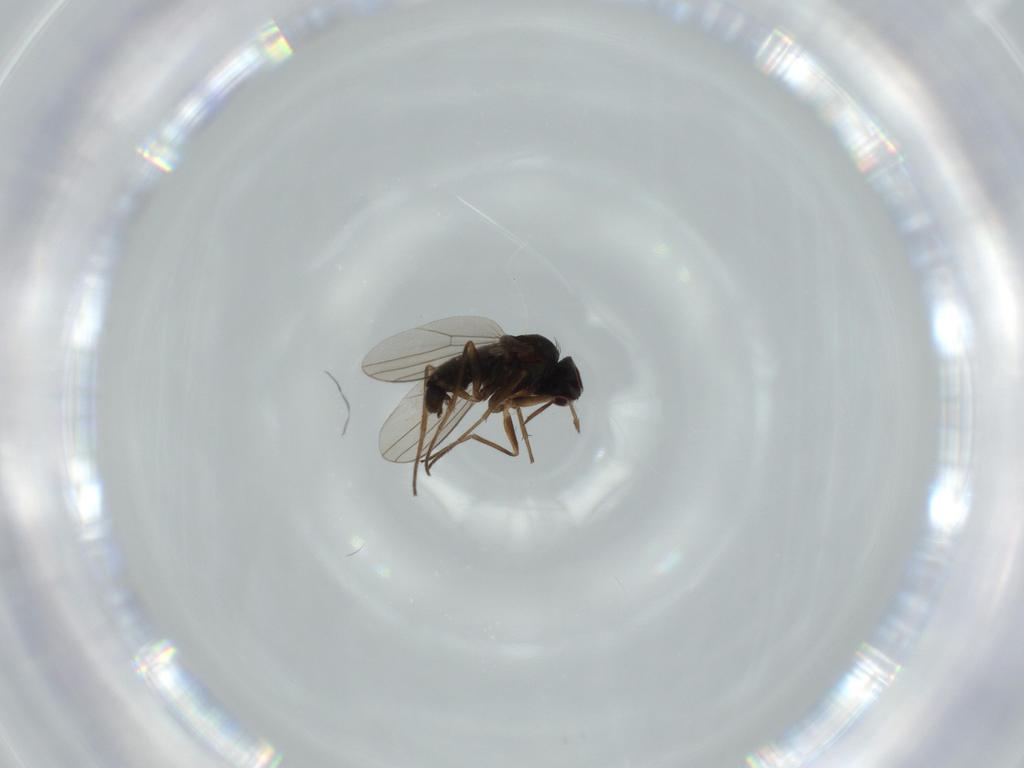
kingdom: Animalia
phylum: Arthropoda
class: Insecta
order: Diptera
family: Dolichopodidae
